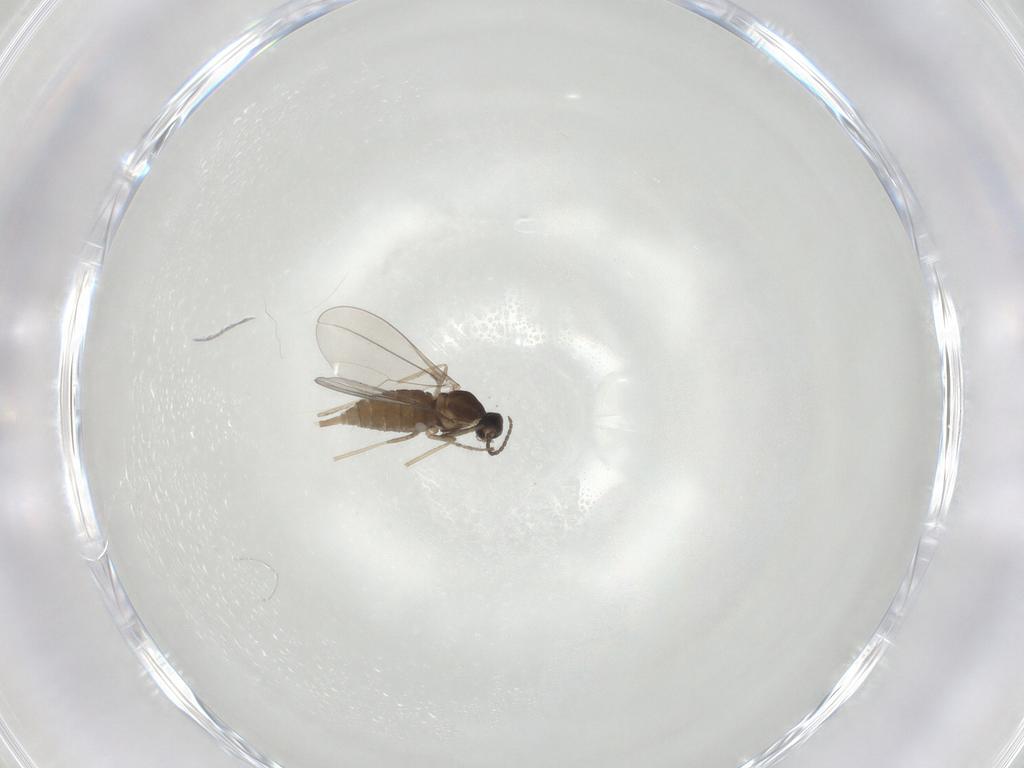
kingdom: Animalia
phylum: Arthropoda
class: Insecta
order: Diptera
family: Cecidomyiidae
